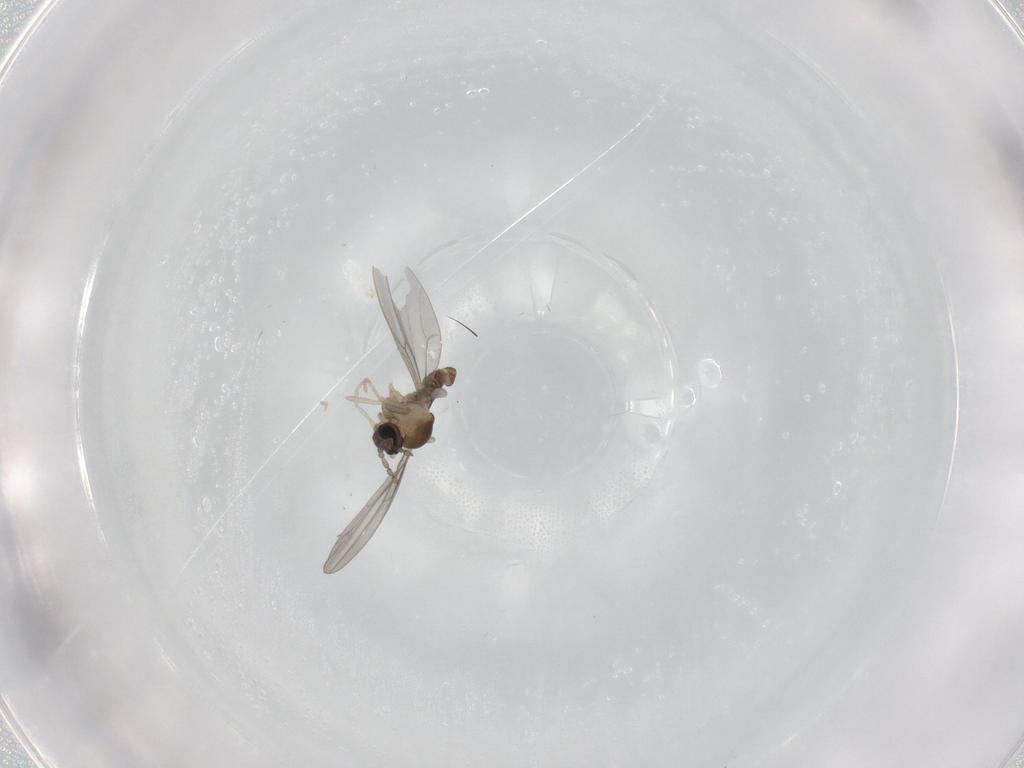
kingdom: Animalia
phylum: Arthropoda
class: Insecta
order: Diptera
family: Cecidomyiidae
